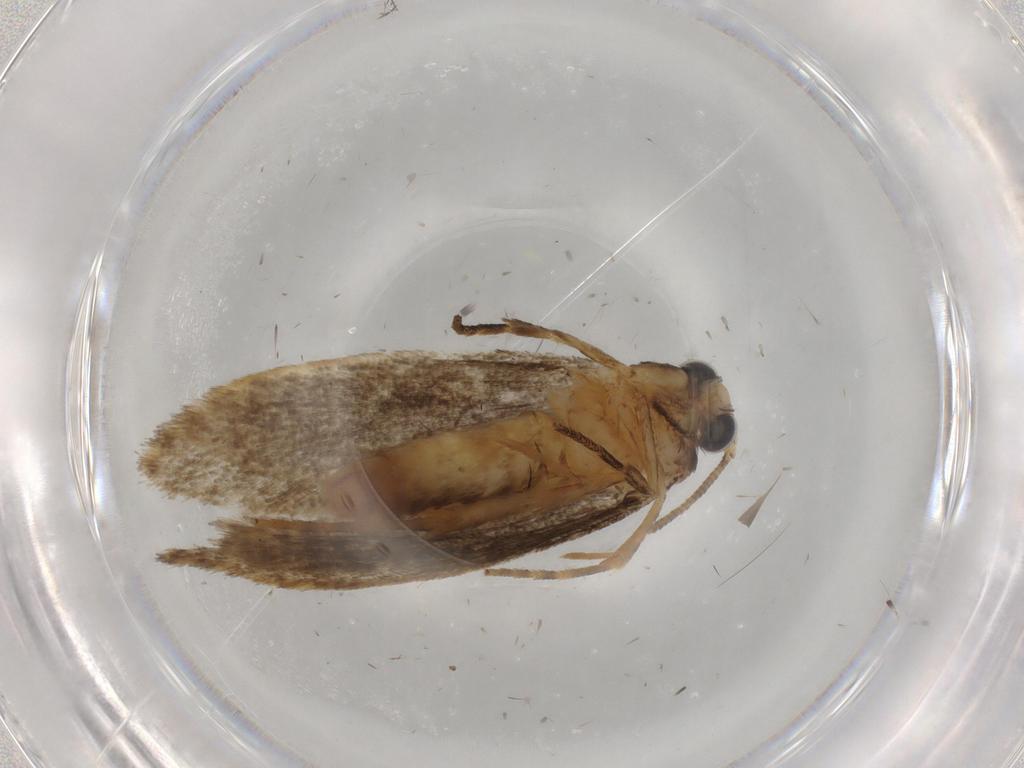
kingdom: Animalia
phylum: Arthropoda
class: Insecta
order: Lepidoptera
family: Tineidae
